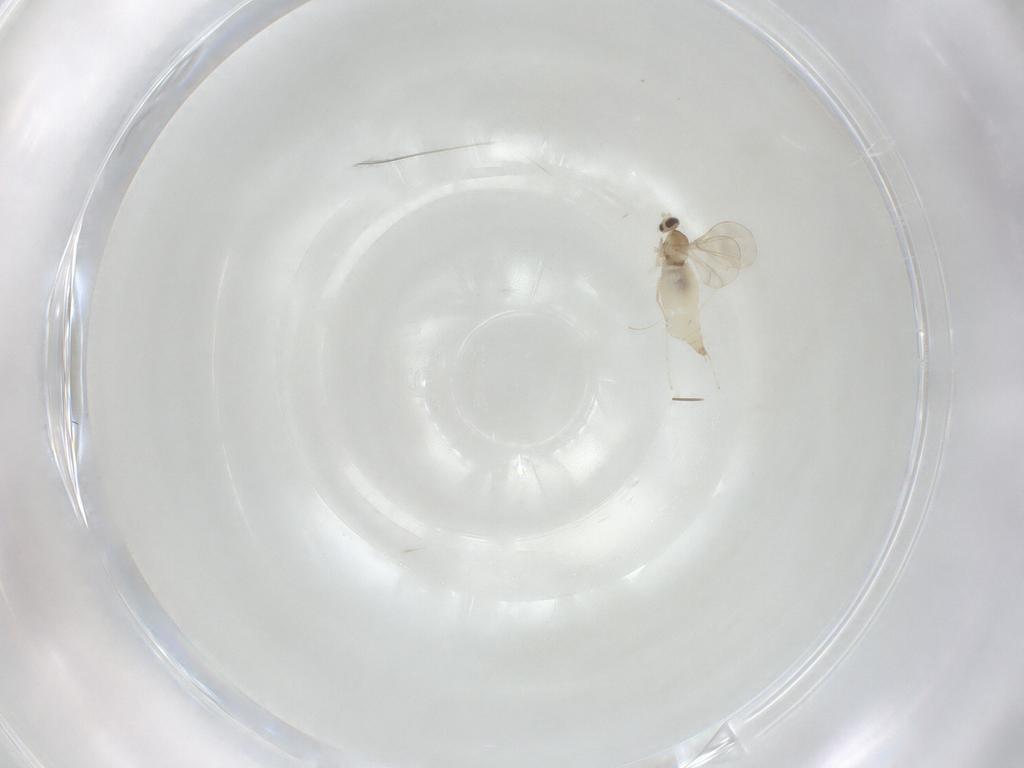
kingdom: Animalia
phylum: Arthropoda
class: Insecta
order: Diptera
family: Cecidomyiidae
